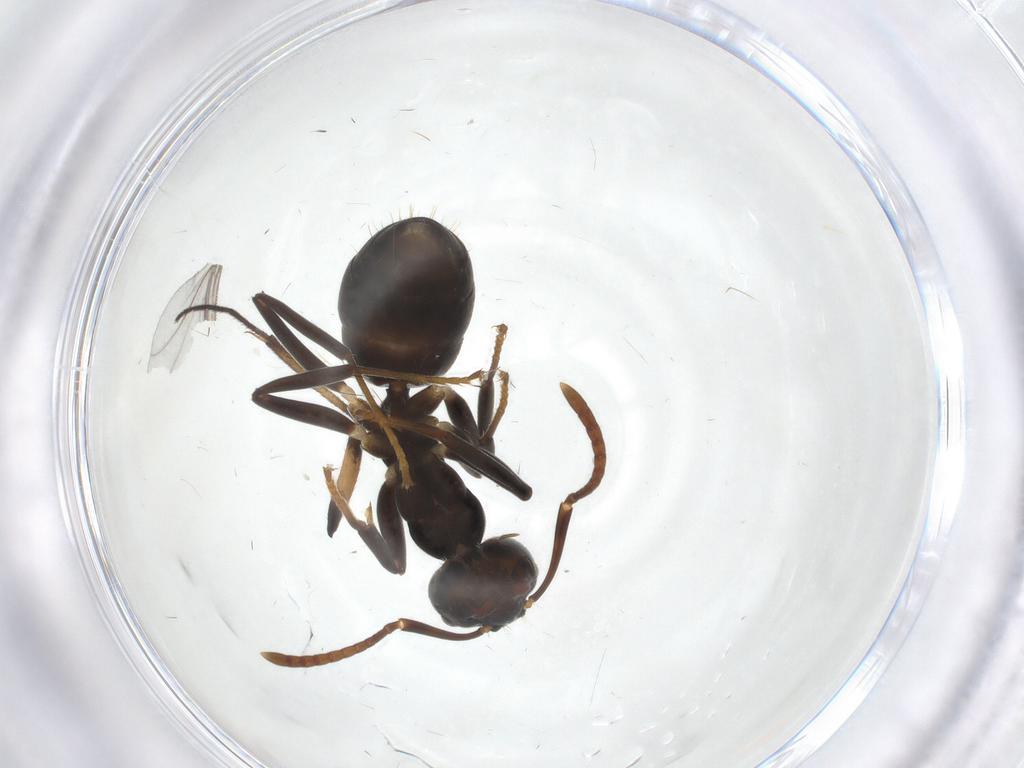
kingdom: Animalia
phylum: Arthropoda
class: Insecta
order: Hymenoptera
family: Formicidae
